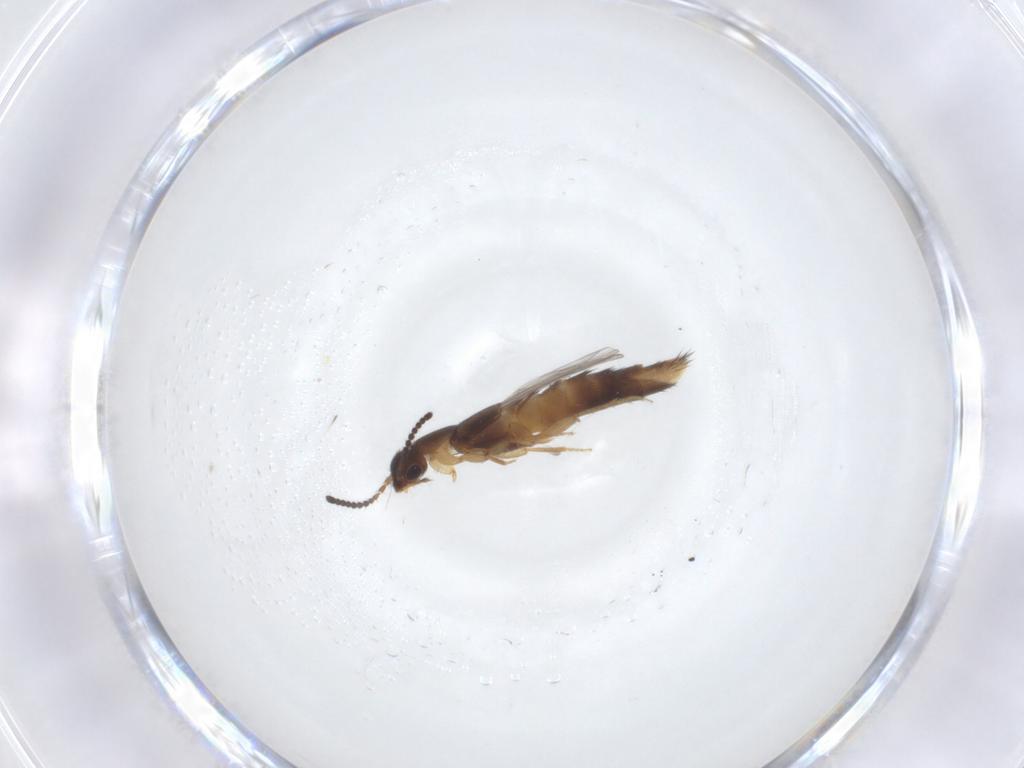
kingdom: Animalia
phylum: Arthropoda
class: Insecta
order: Coleoptera
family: Staphylinidae
